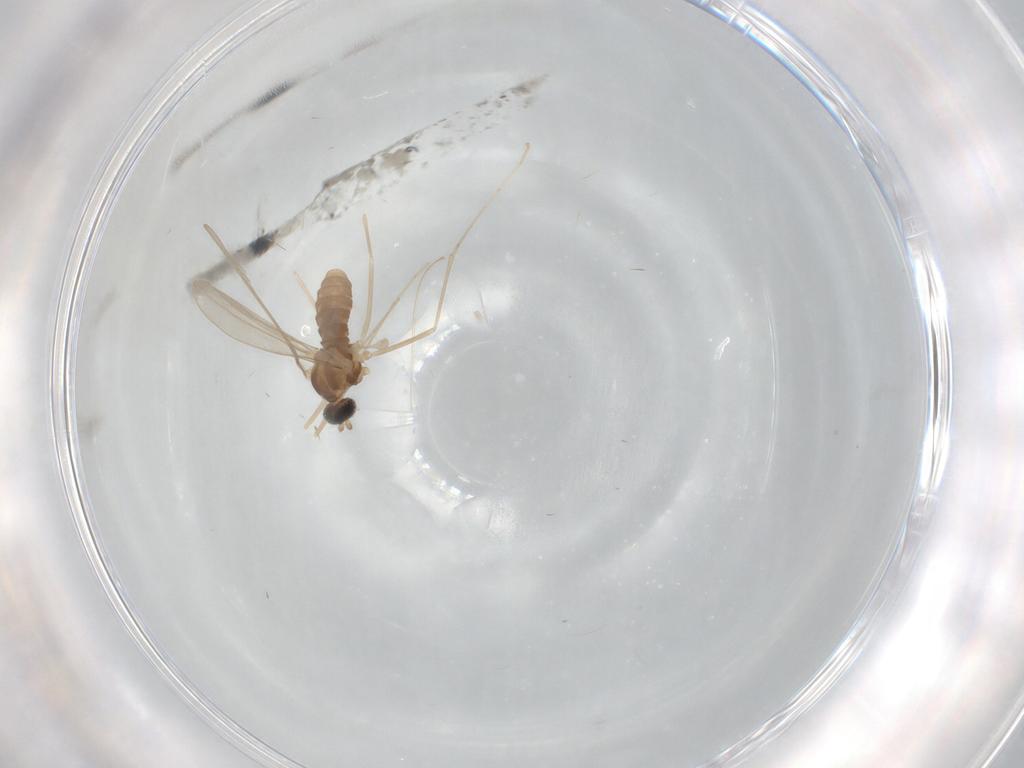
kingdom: Animalia
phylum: Arthropoda
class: Insecta
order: Diptera
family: Cecidomyiidae
